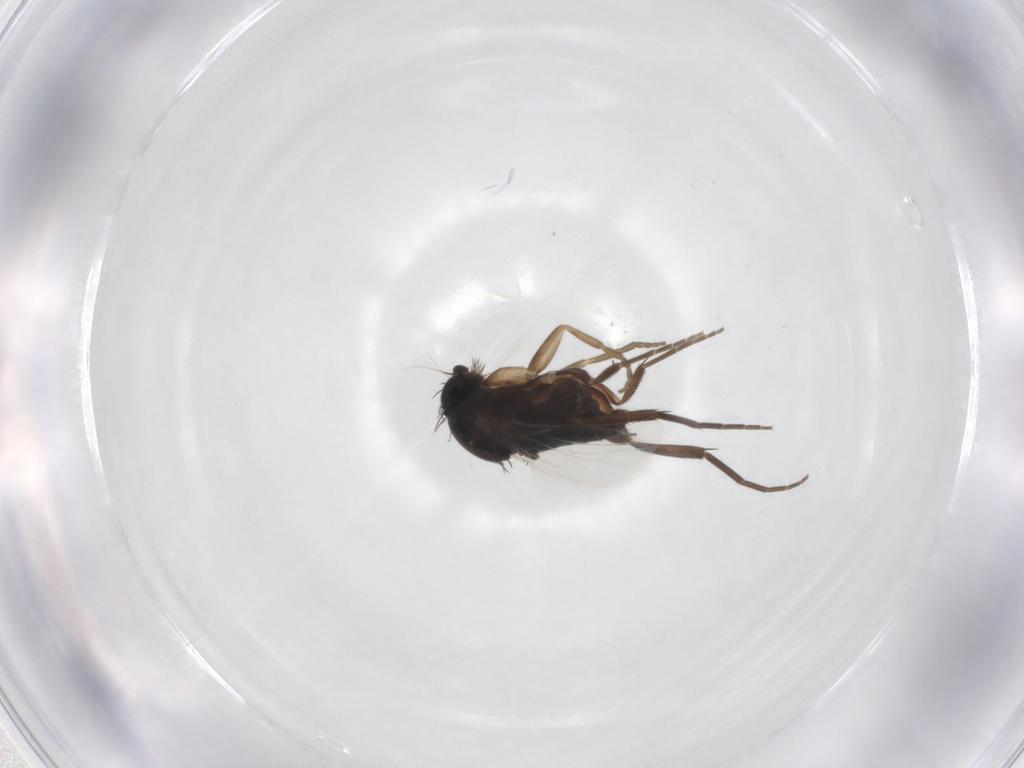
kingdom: Animalia
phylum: Arthropoda
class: Insecta
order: Diptera
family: Phoridae
